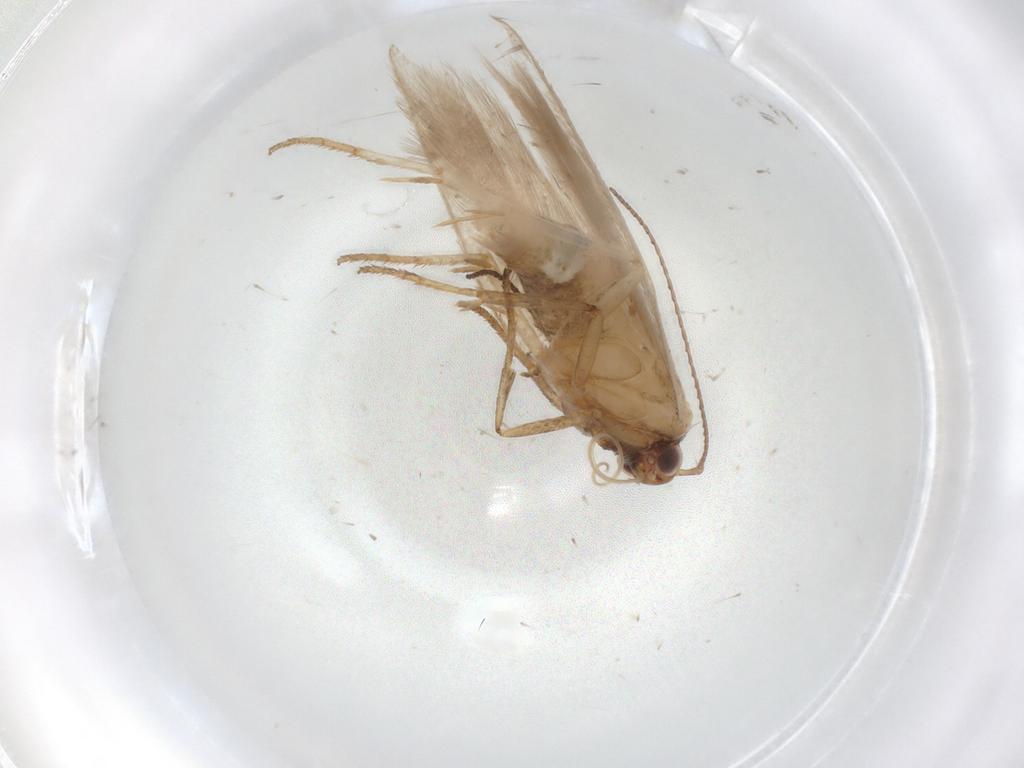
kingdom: Animalia
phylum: Arthropoda
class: Insecta
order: Lepidoptera
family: Gelechiidae
